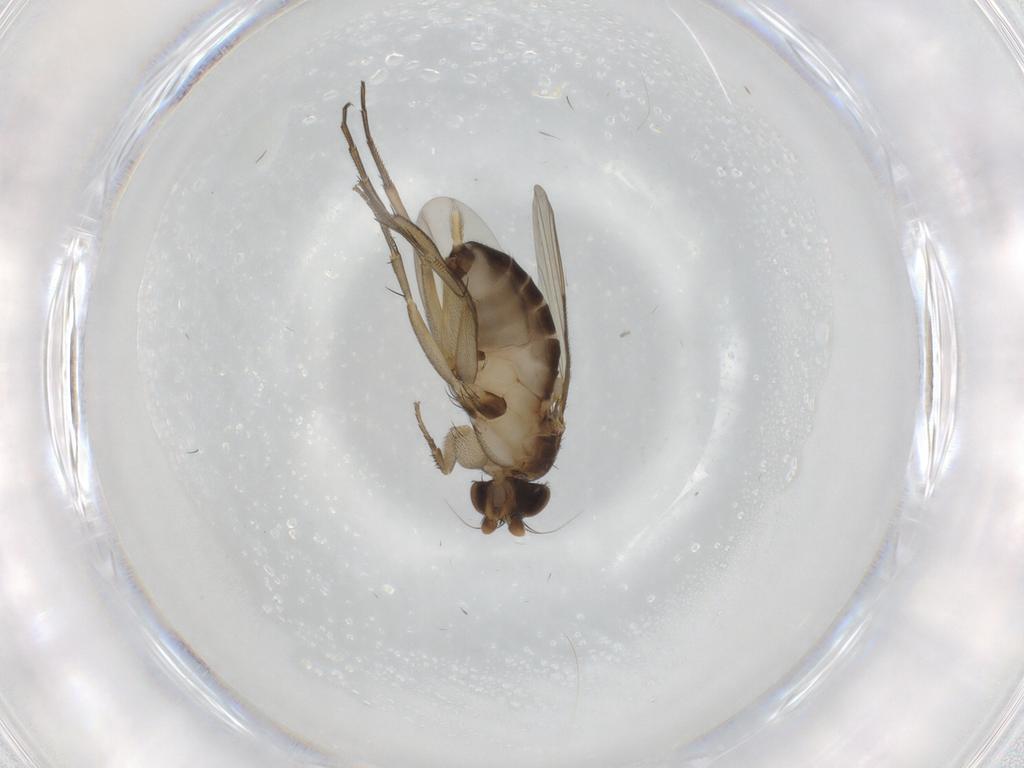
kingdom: Animalia
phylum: Arthropoda
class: Insecta
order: Diptera
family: Phoridae
